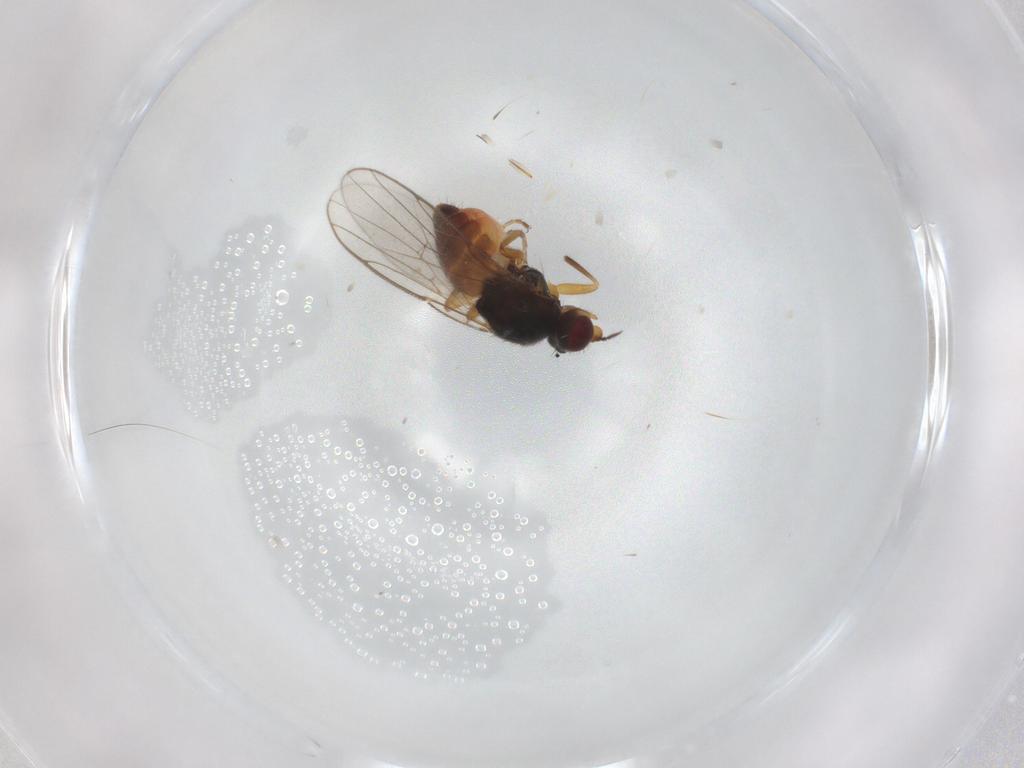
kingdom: Animalia
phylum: Arthropoda
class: Insecta
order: Diptera
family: Chloropidae
